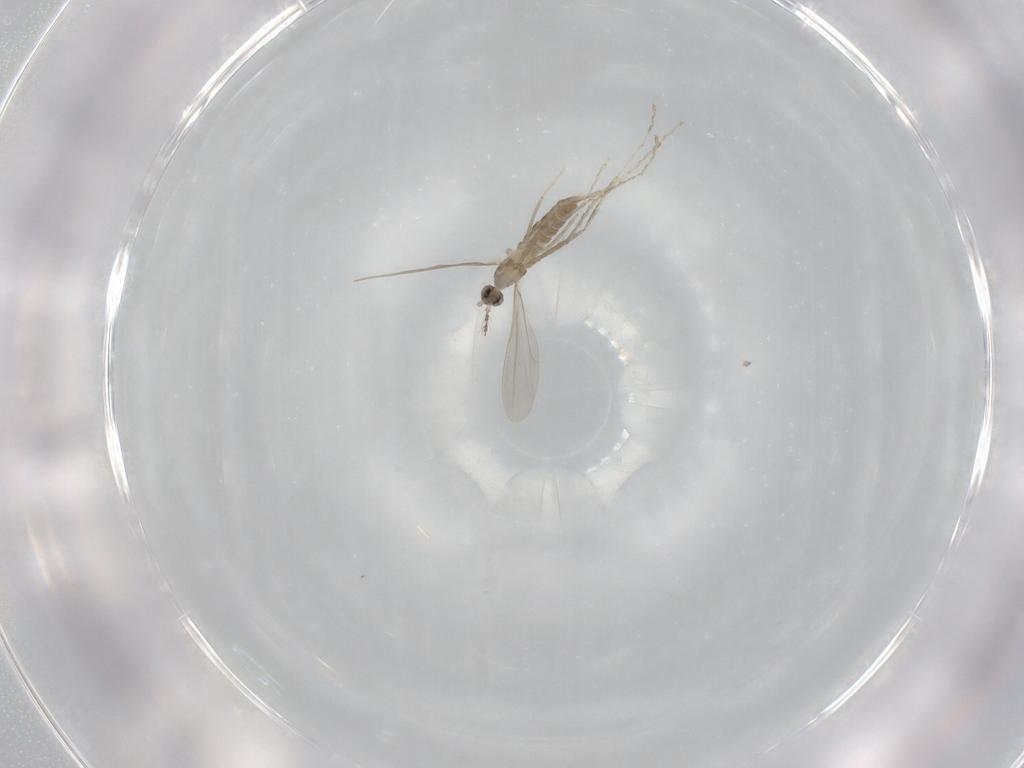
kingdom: Animalia
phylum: Arthropoda
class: Insecta
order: Diptera
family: Cecidomyiidae
